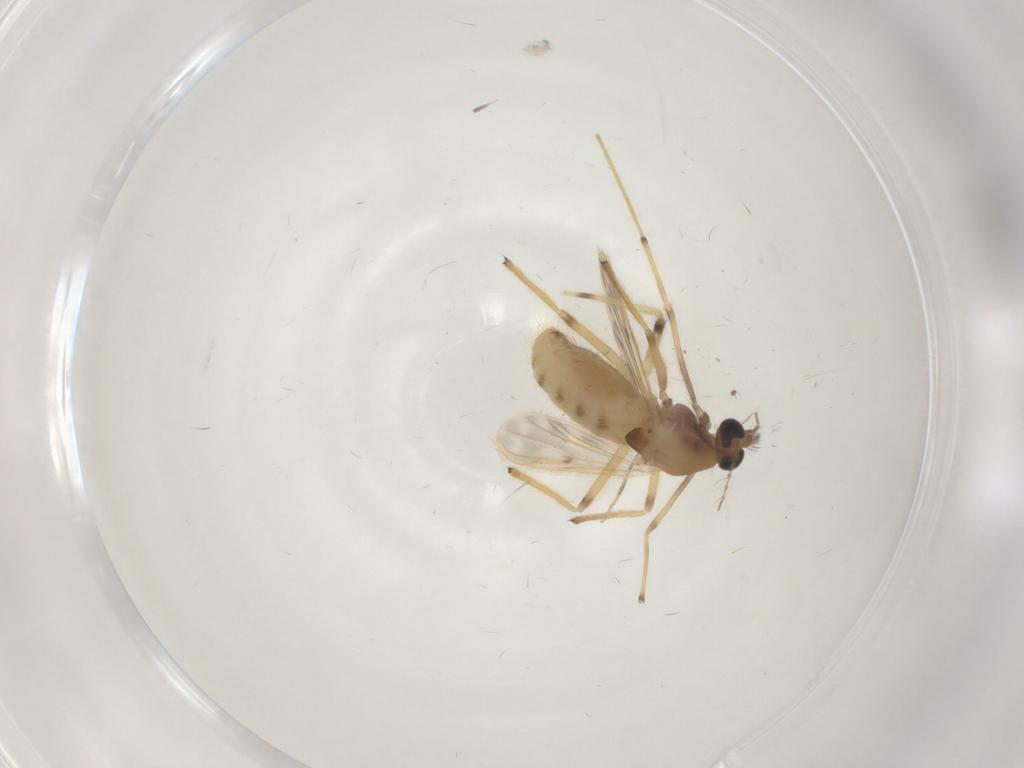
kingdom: Animalia
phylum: Arthropoda
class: Insecta
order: Diptera
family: Chironomidae
